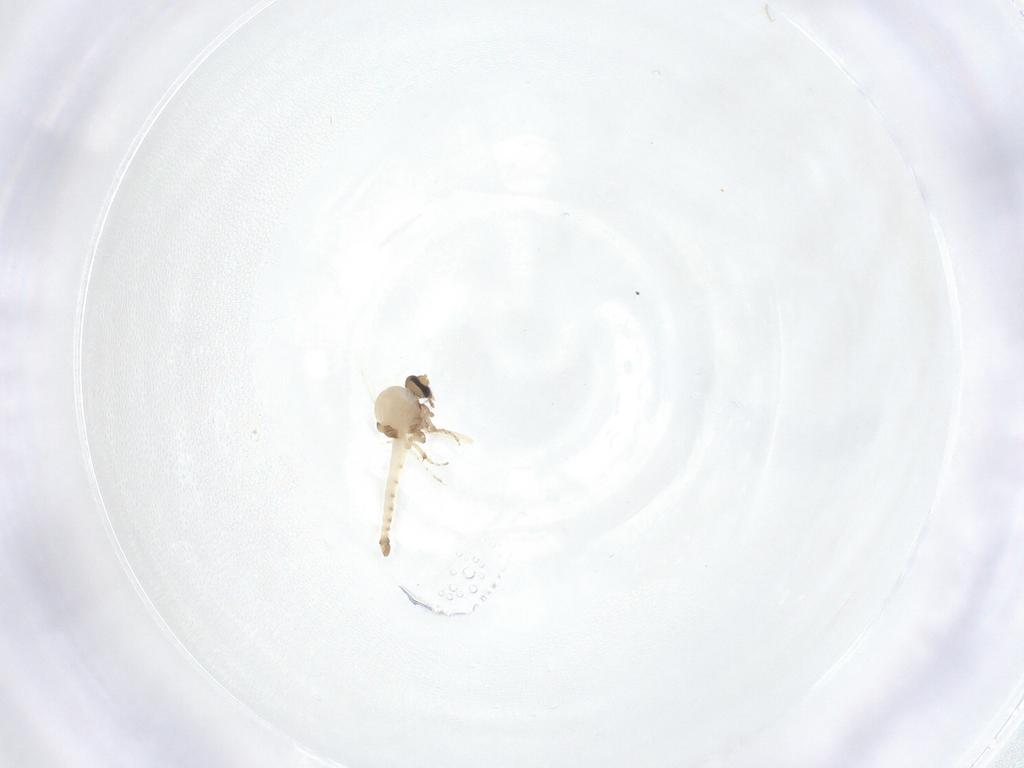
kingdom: Animalia
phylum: Arthropoda
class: Insecta
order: Diptera
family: Ceratopogonidae
